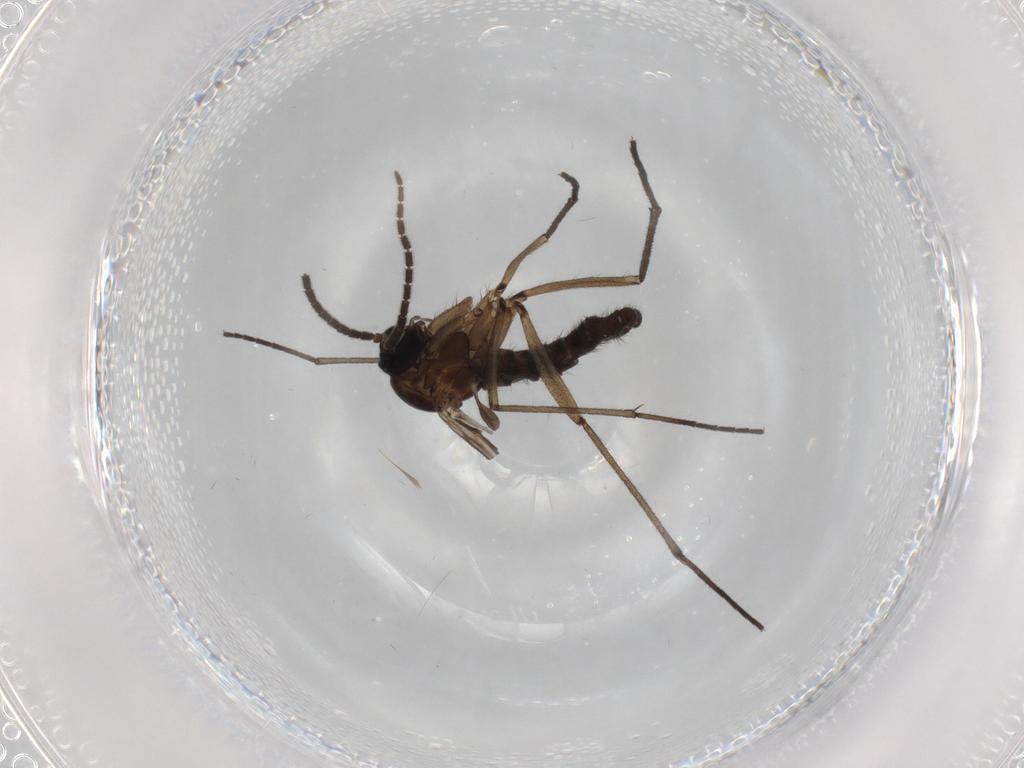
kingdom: Animalia
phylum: Arthropoda
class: Insecta
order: Diptera
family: Sciaridae
